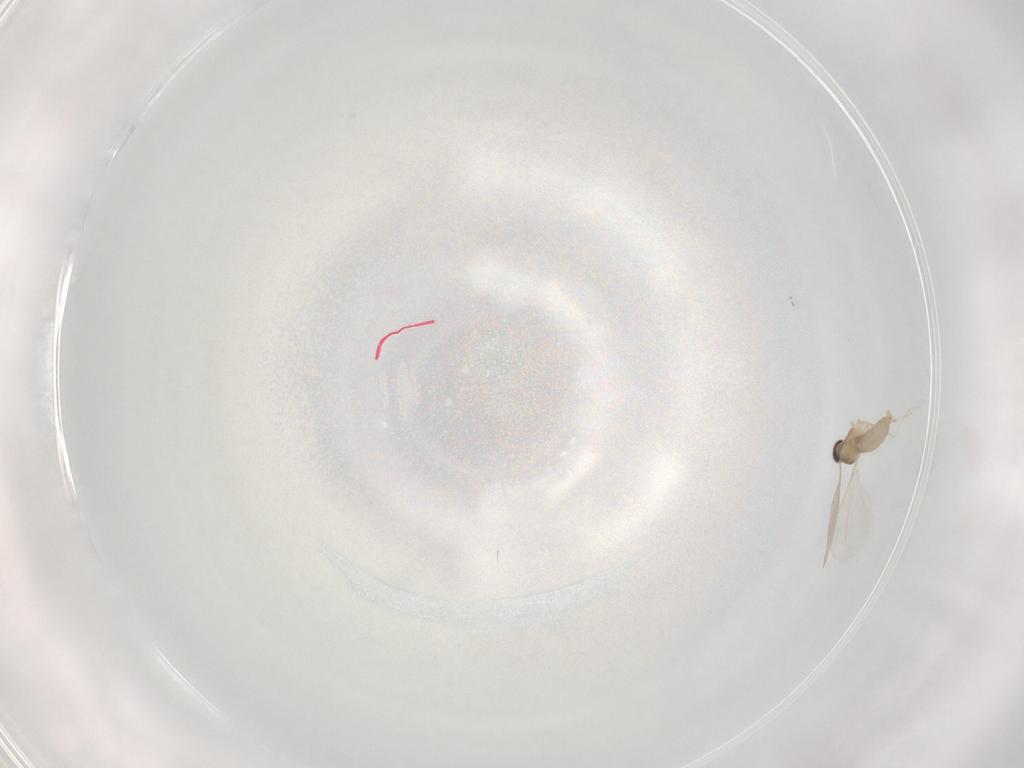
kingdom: Animalia
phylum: Arthropoda
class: Insecta
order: Diptera
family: Cecidomyiidae
